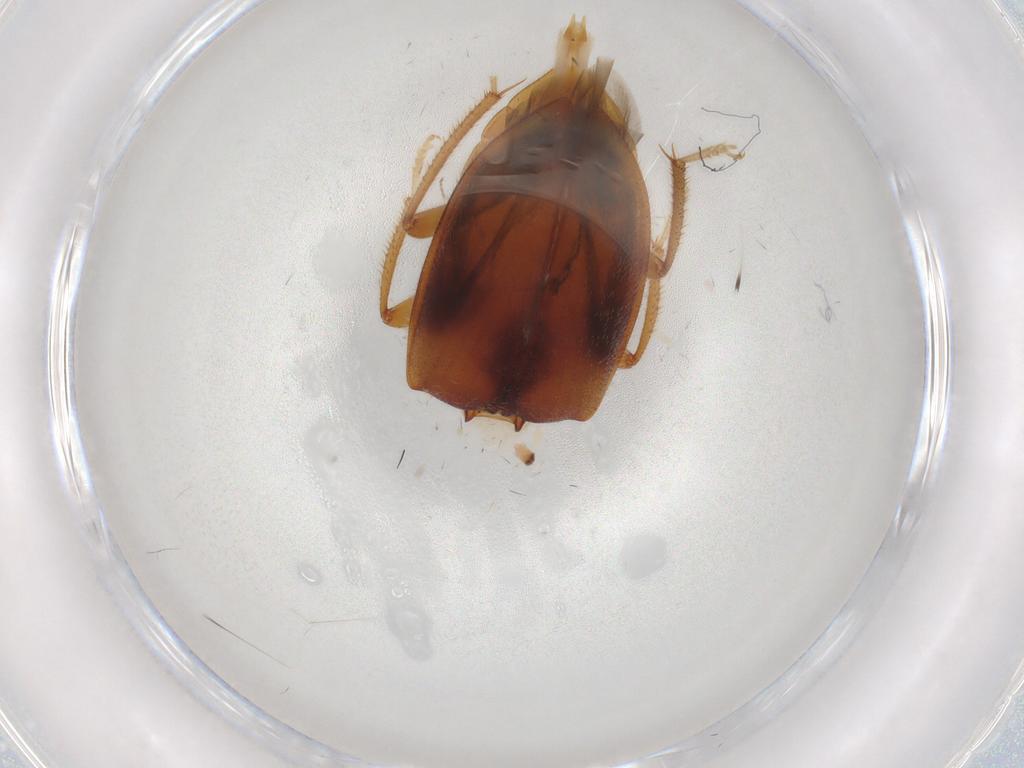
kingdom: Animalia
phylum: Arthropoda
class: Insecta
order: Coleoptera
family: Ptilodactylidae
